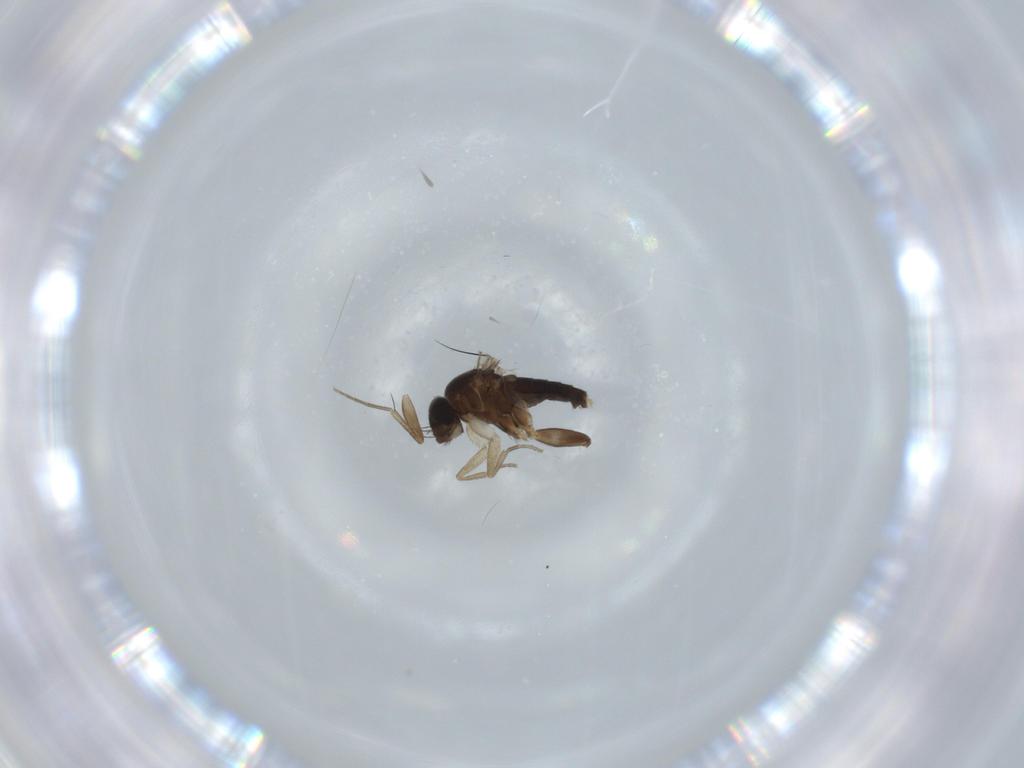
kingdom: Animalia
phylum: Arthropoda
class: Insecta
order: Diptera
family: Phoridae
